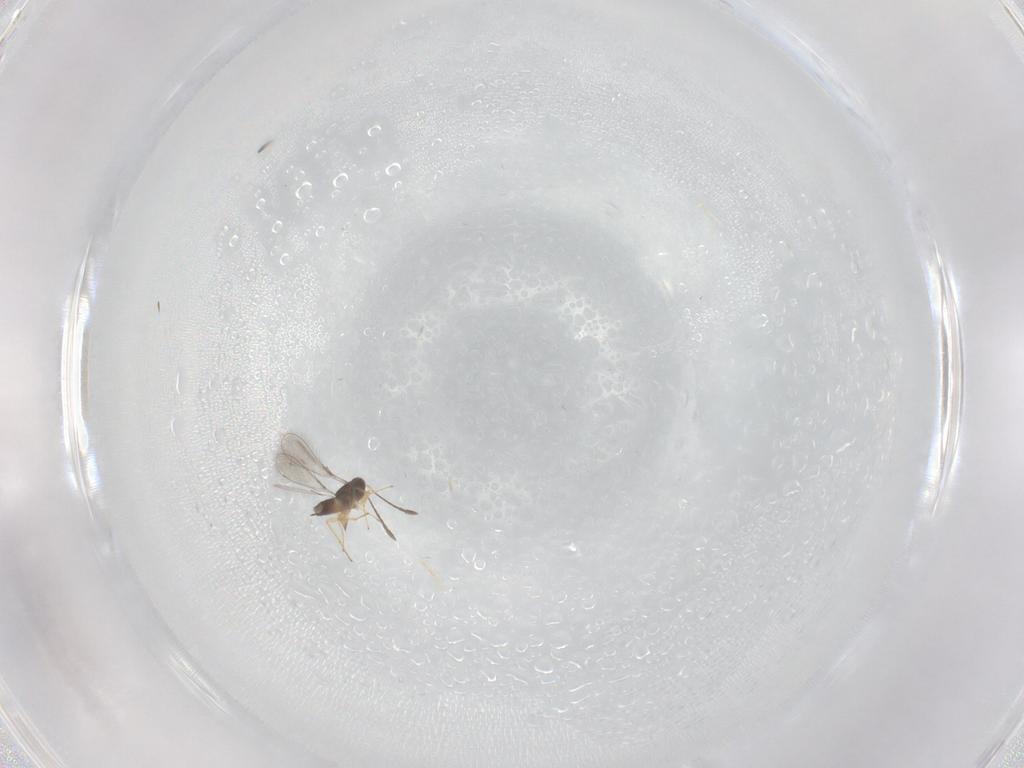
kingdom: Animalia
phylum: Arthropoda
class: Insecta
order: Hymenoptera
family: Mymaridae
